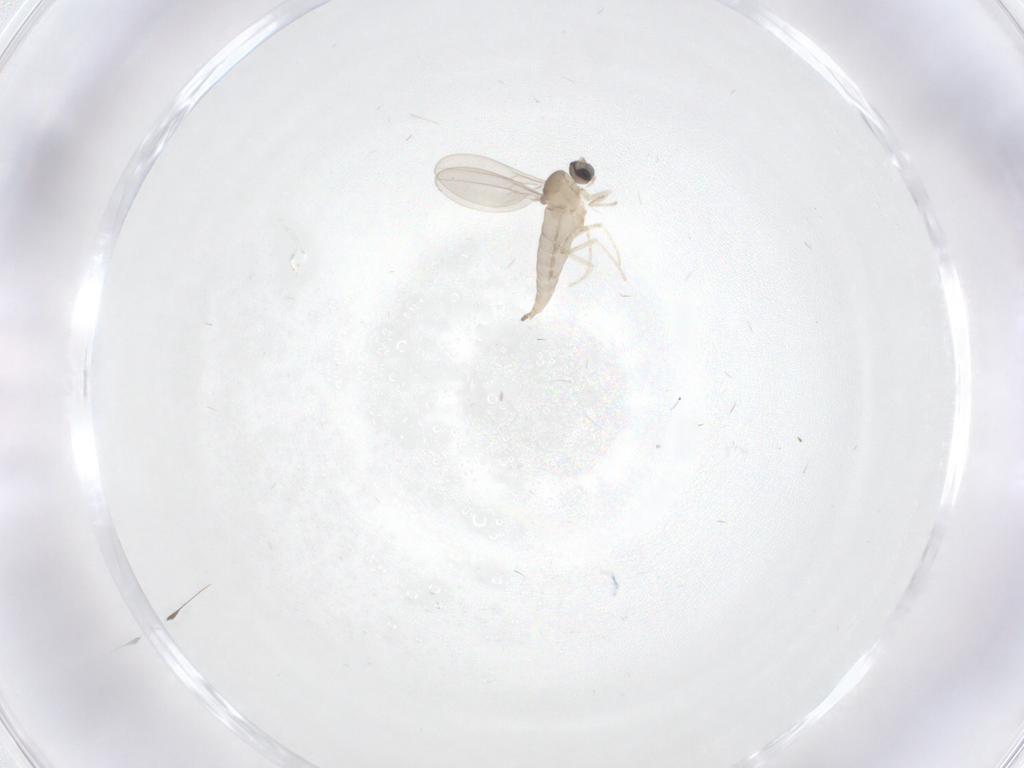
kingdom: Animalia
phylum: Arthropoda
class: Insecta
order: Diptera
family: Cecidomyiidae
